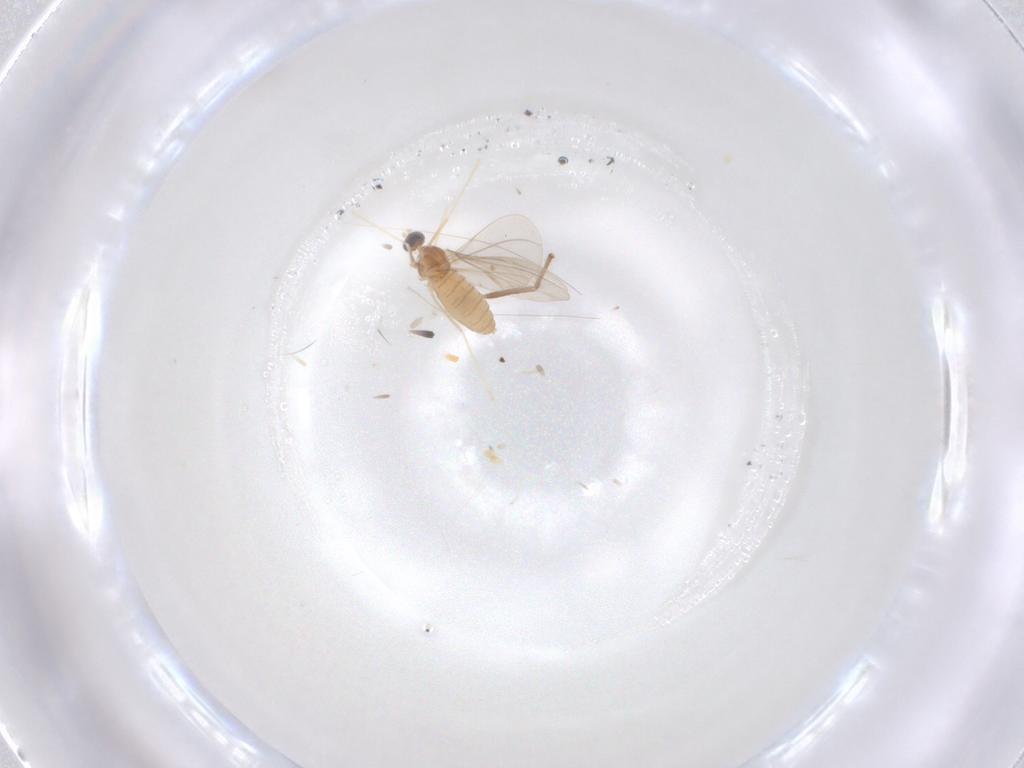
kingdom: Animalia
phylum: Arthropoda
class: Insecta
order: Diptera
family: Cecidomyiidae
